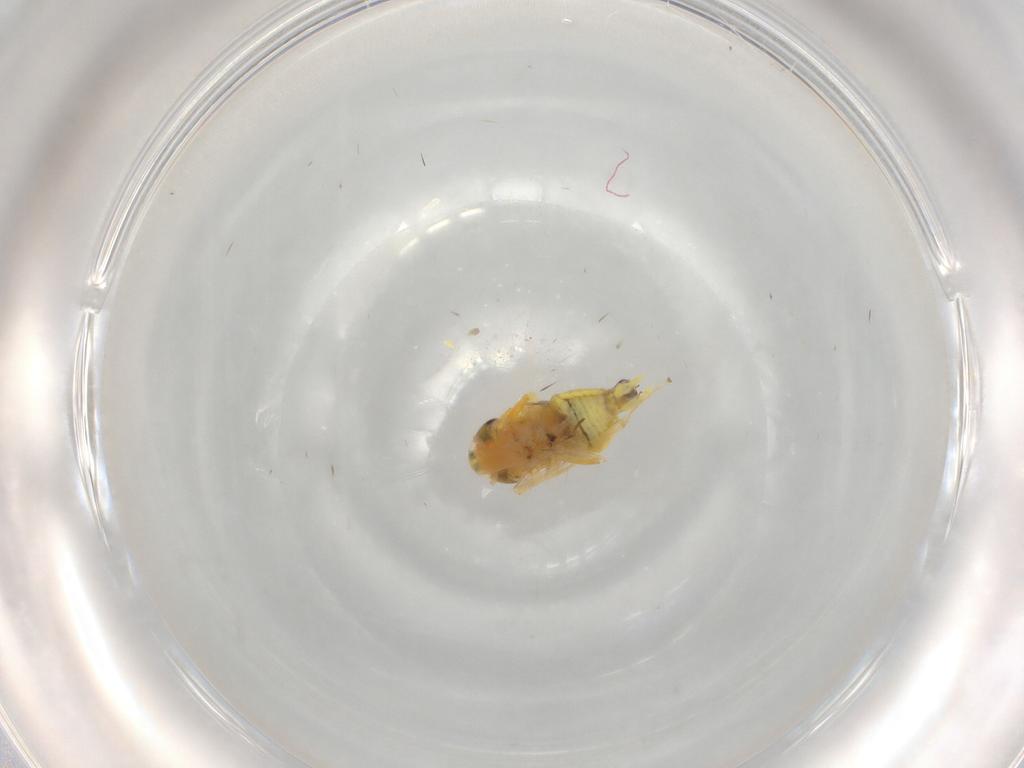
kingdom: Animalia
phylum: Arthropoda
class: Insecta
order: Hemiptera
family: Cicadellidae
